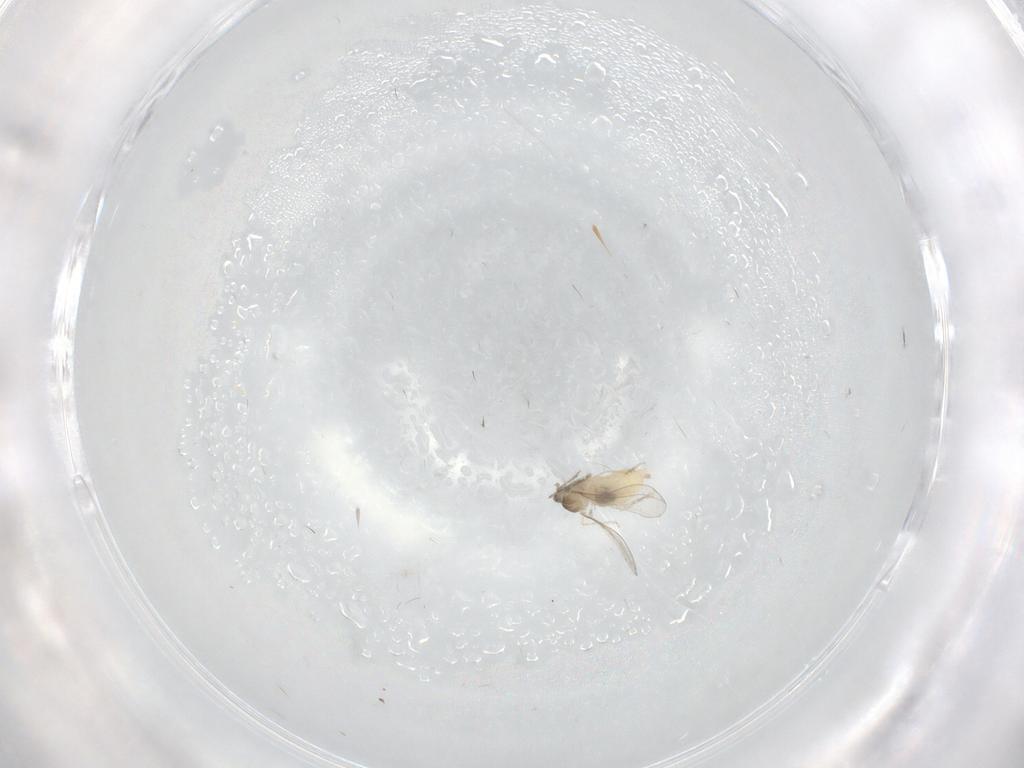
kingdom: Animalia
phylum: Arthropoda
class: Insecta
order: Diptera
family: Cecidomyiidae
